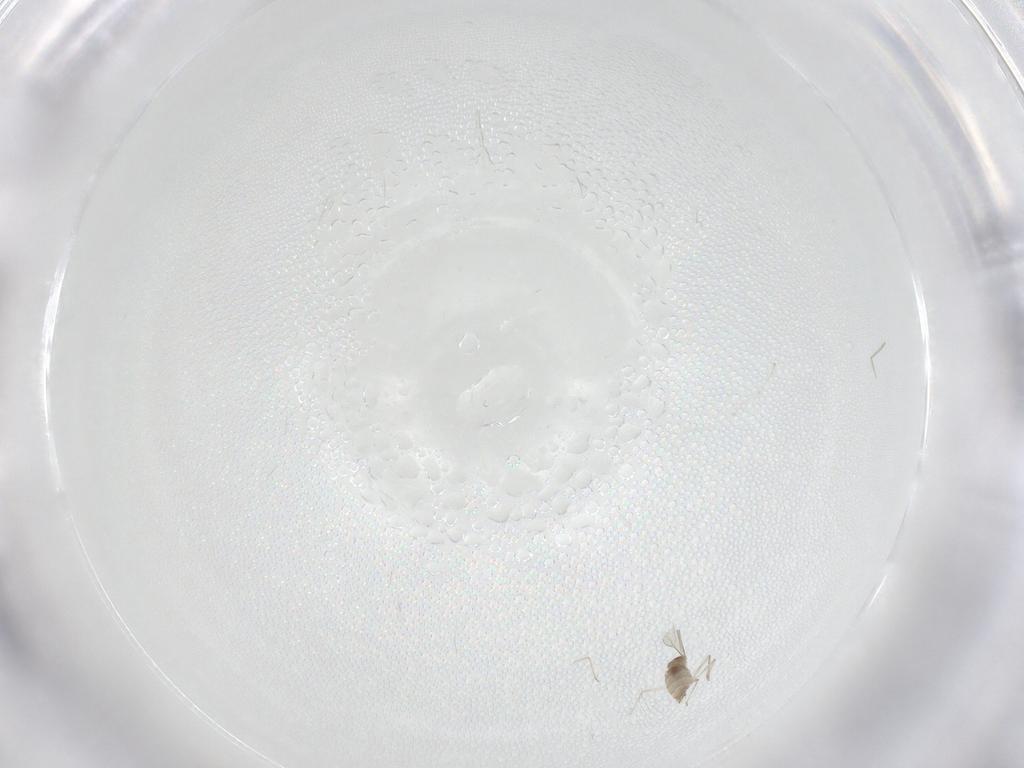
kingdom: Animalia
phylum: Arthropoda
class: Insecta
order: Diptera
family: Cecidomyiidae
